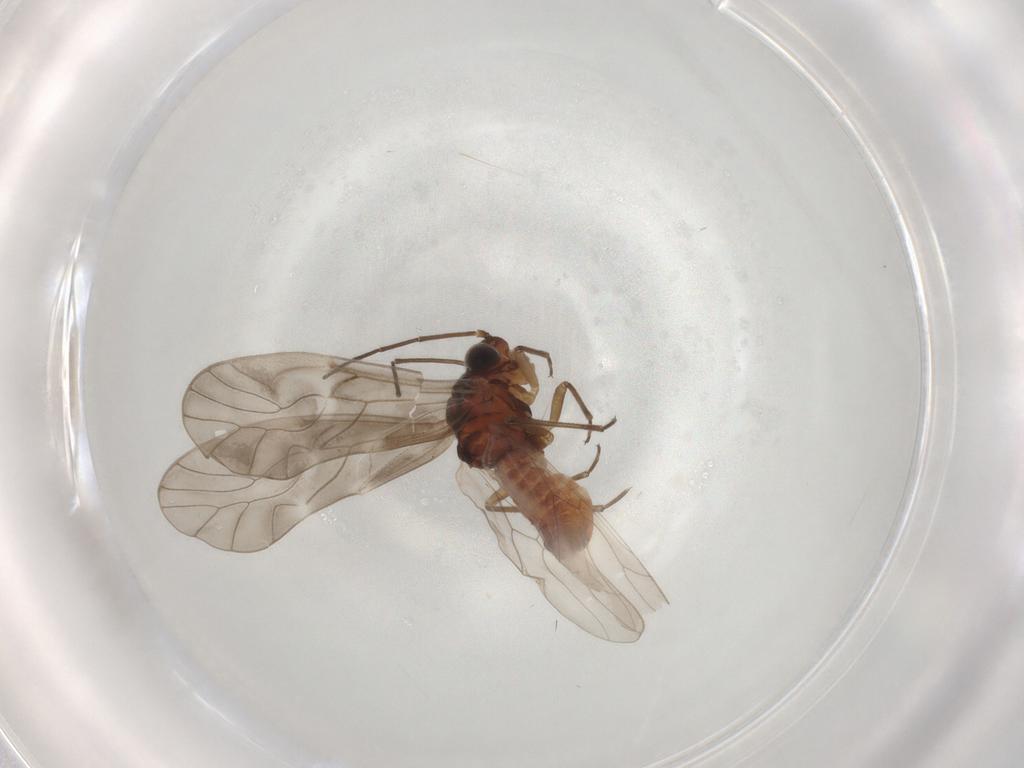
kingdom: Animalia
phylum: Arthropoda
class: Insecta
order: Psocodea
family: Caeciliusidae
